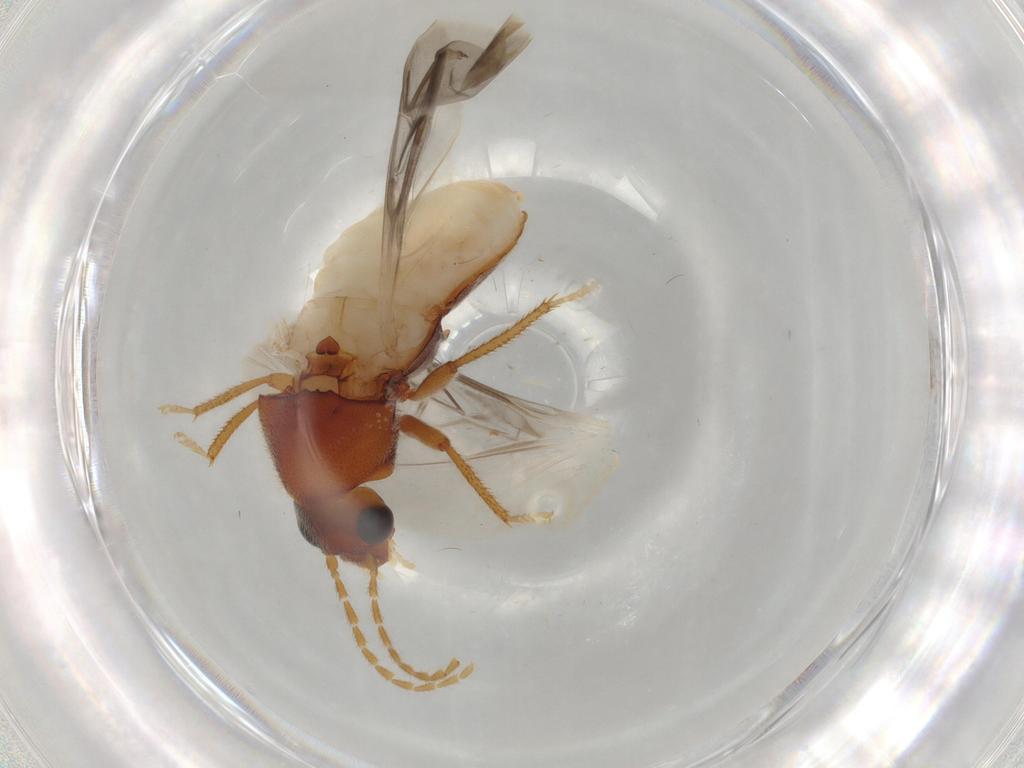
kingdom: Animalia
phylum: Arthropoda
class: Insecta
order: Coleoptera
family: Ptilodactylidae
